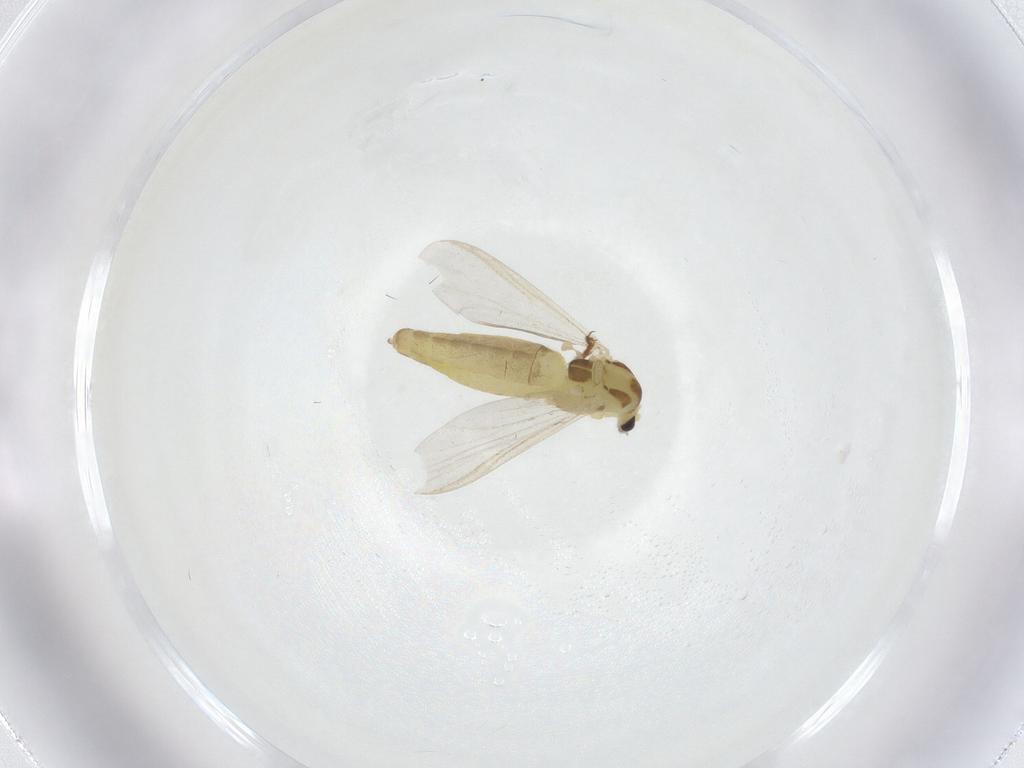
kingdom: Animalia
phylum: Arthropoda
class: Insecta
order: Diptera
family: Chironomidae
